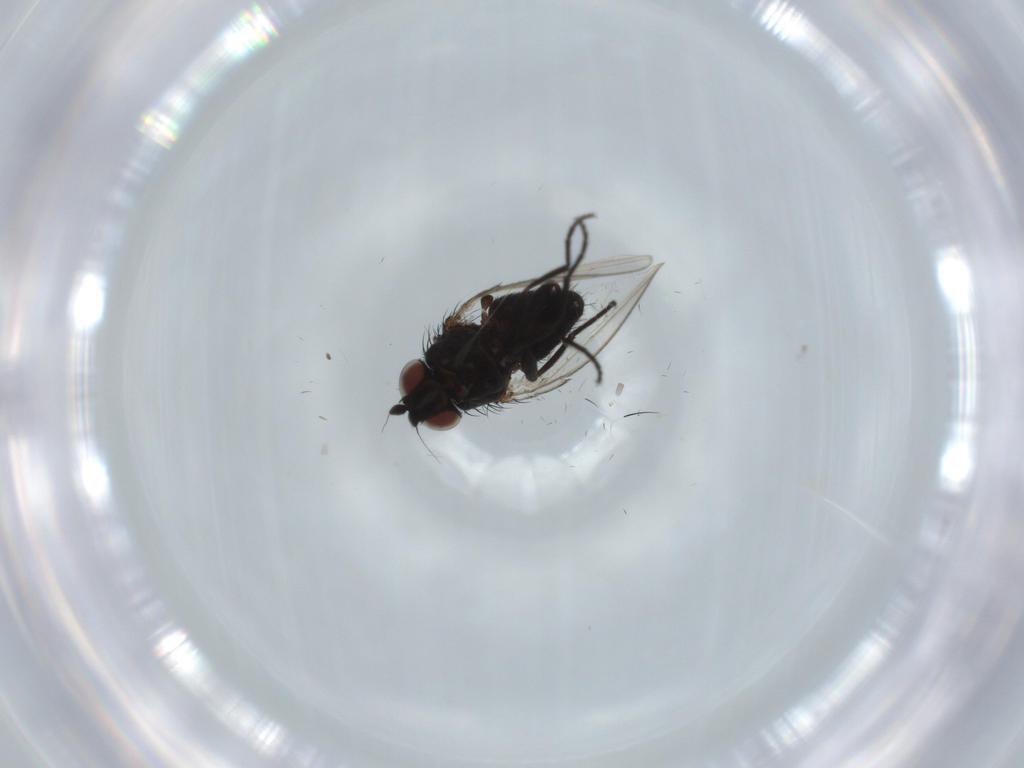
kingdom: Animalia
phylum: Arthropoda
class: Insecta
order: Diptera
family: Milichiidae
